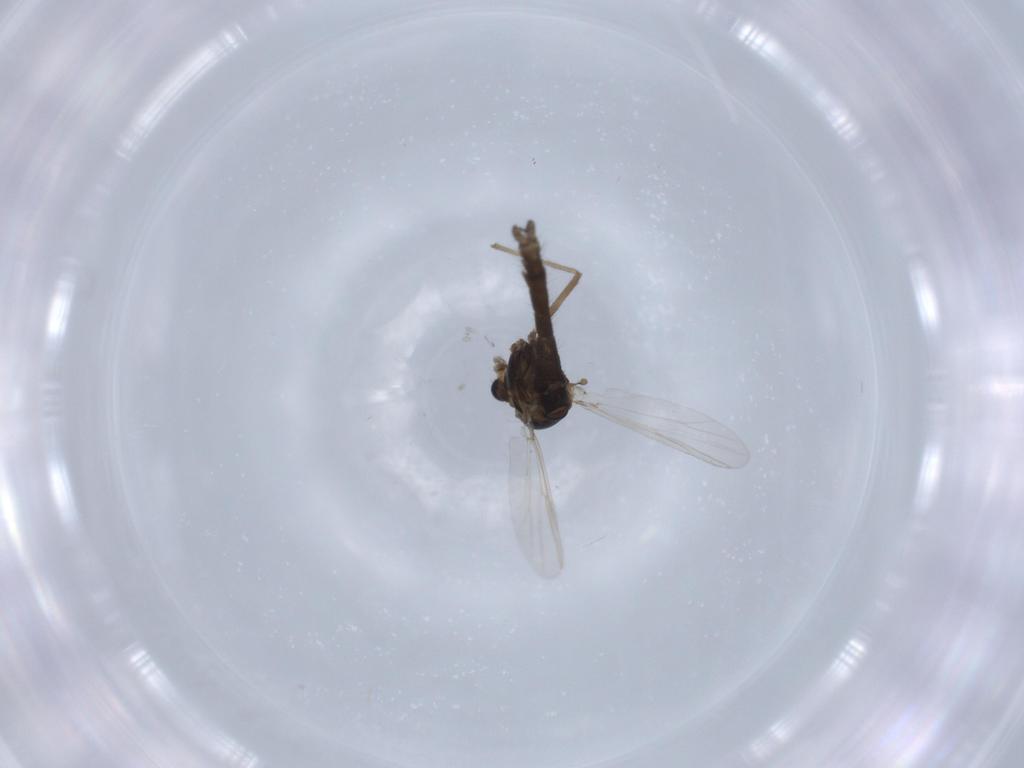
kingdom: Animalia
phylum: Arthropoda
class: Insecta
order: Diptera
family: Chironomidae
